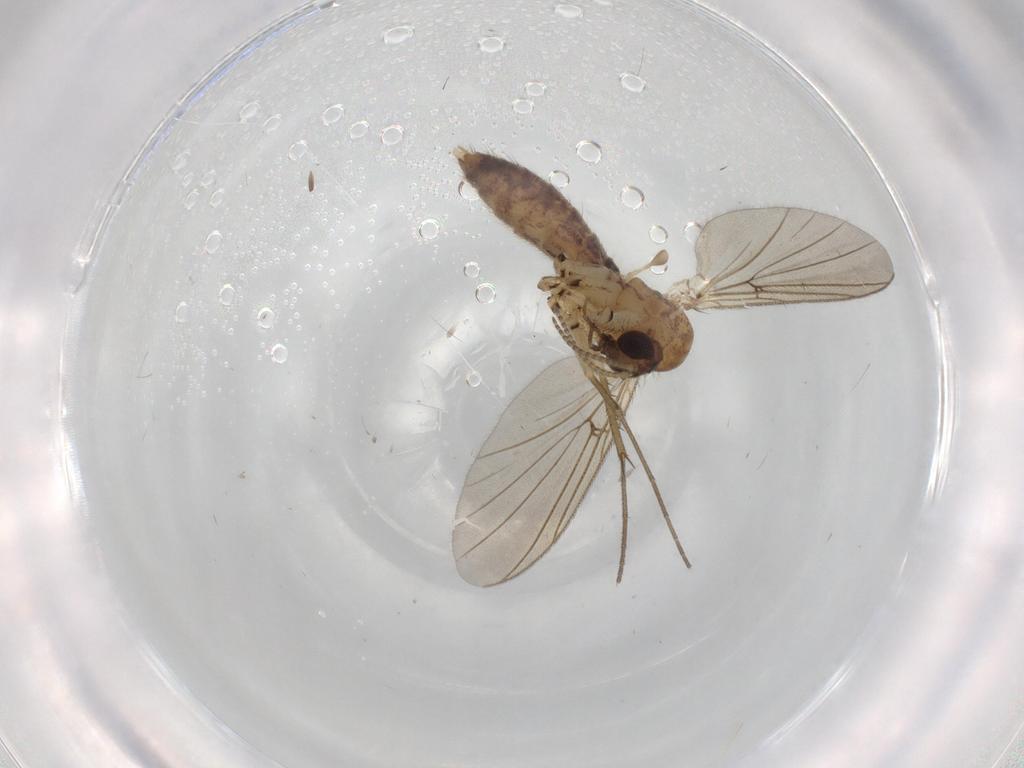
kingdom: Animalia
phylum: Arthropoda
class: Insecta
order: Diptera
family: Mycetophilidae
